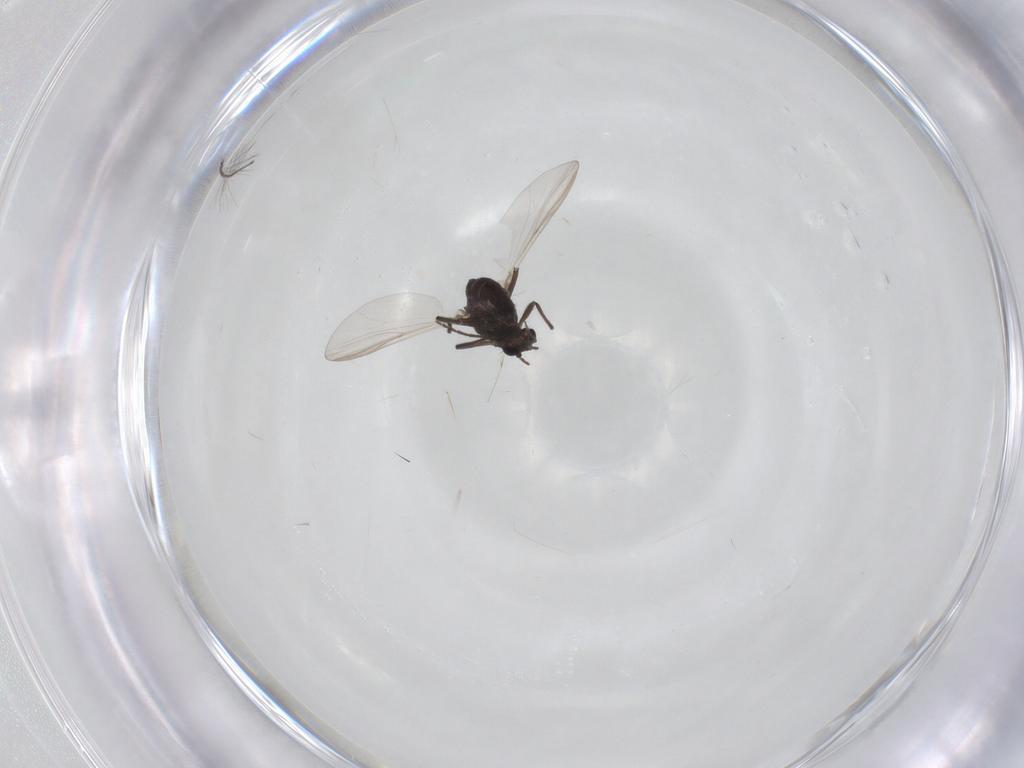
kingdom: Animalia
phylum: Arthropoda
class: Insecta
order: Diptera
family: Chironomidae
